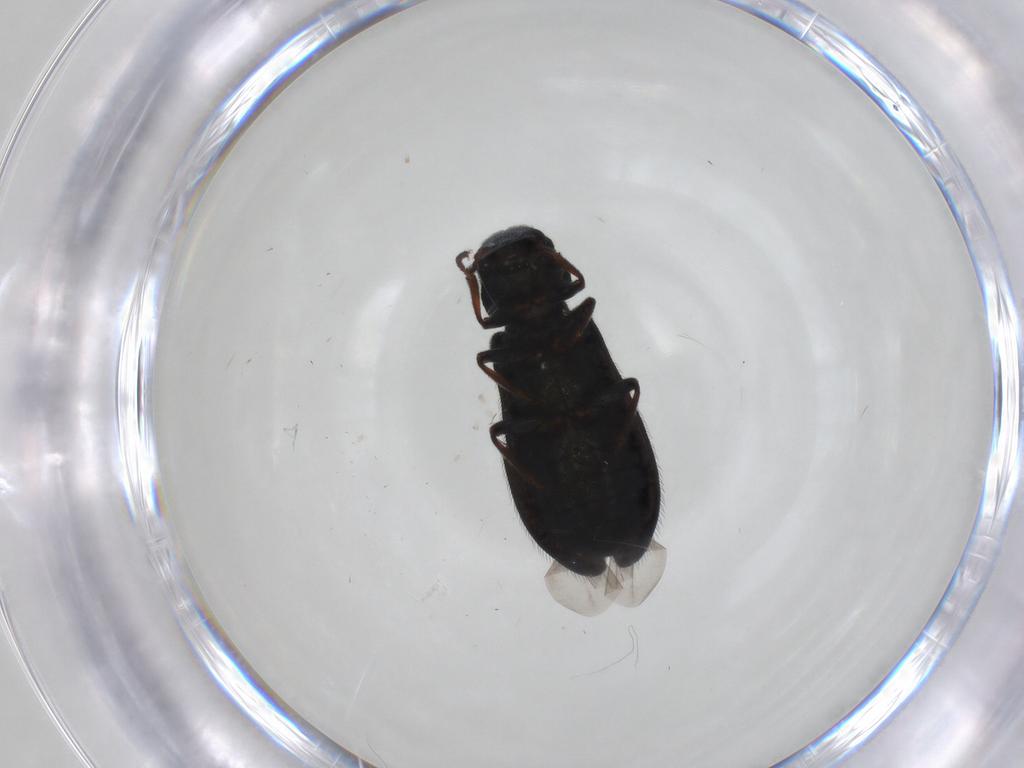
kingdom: Animalia
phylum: Arthropoda
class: Insecta
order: Coleoptera
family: Melyridae
